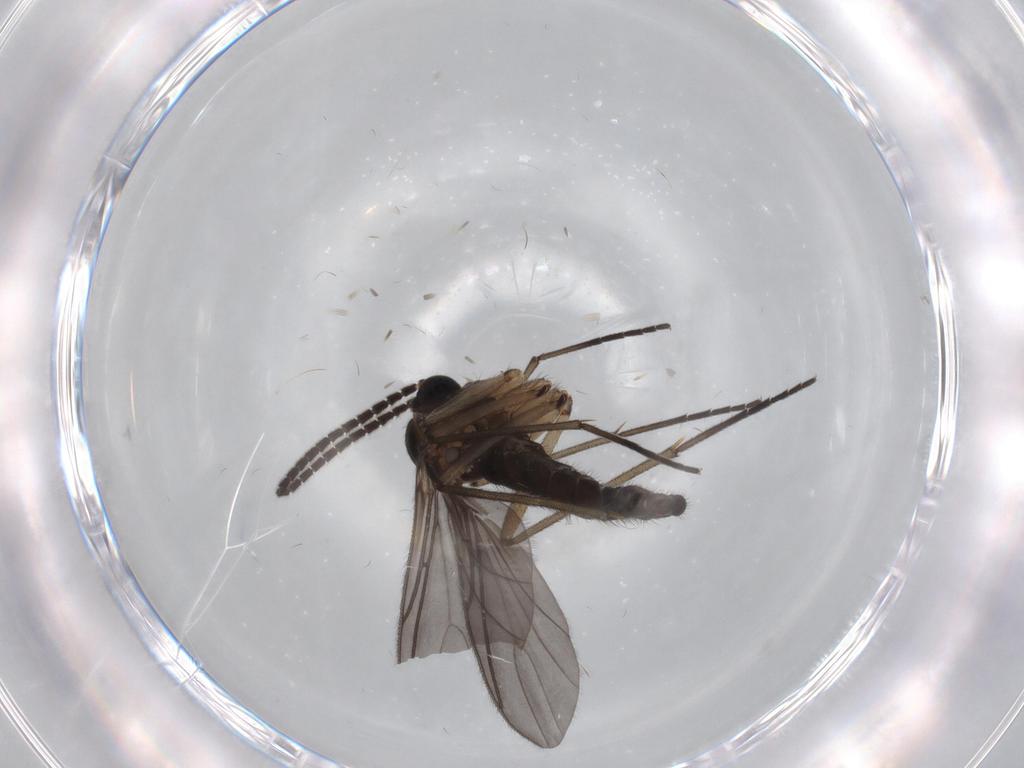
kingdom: Animalia
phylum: Arthropoda
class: Insecta
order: Diptera
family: Sciaridae
